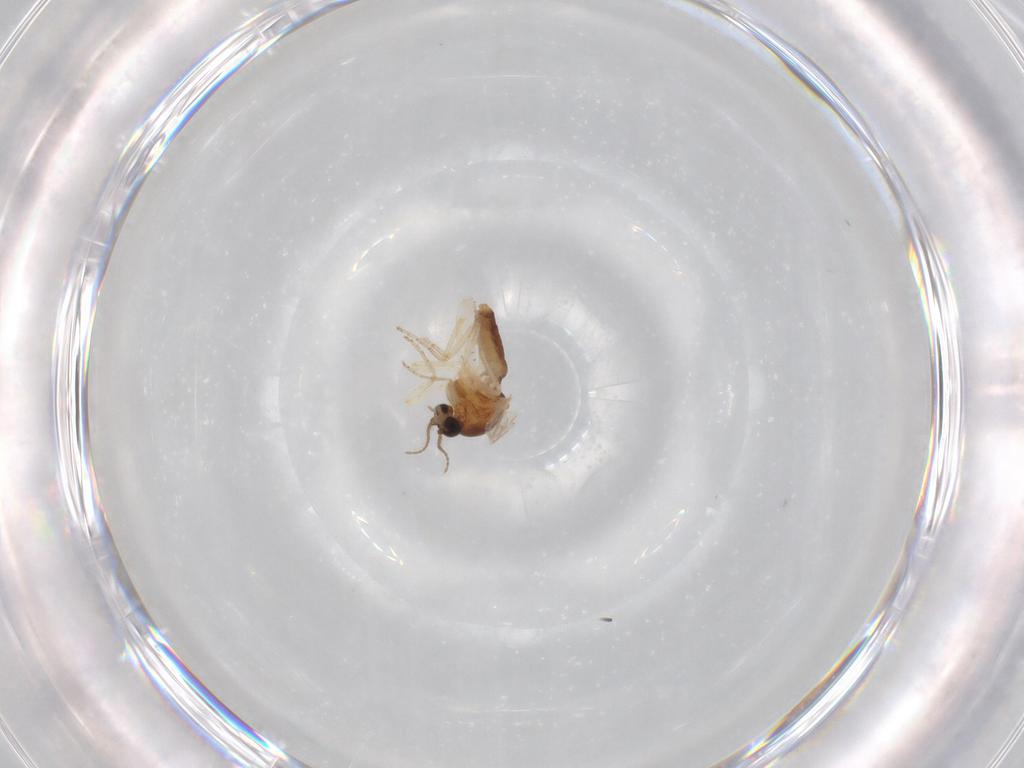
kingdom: Animalia
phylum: Arthropoda
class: Insecta
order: Diptera
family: Ceratopogonidae
